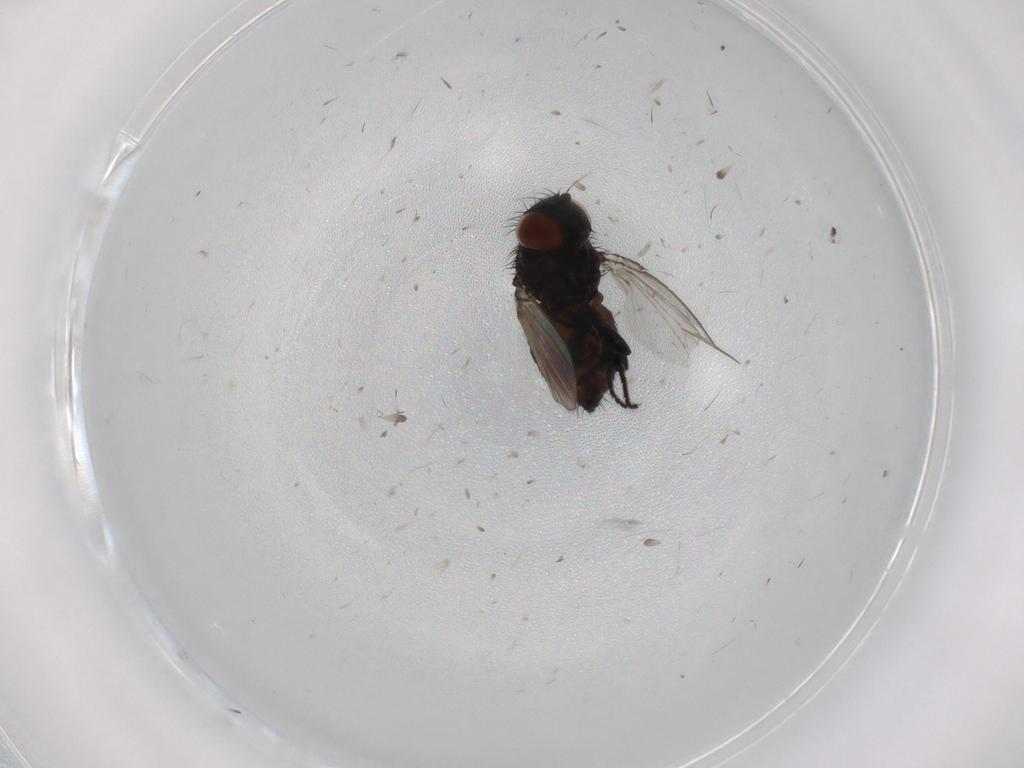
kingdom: Animalia
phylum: Arthropoda
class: Insecta
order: Diptera
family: Milichiidae
